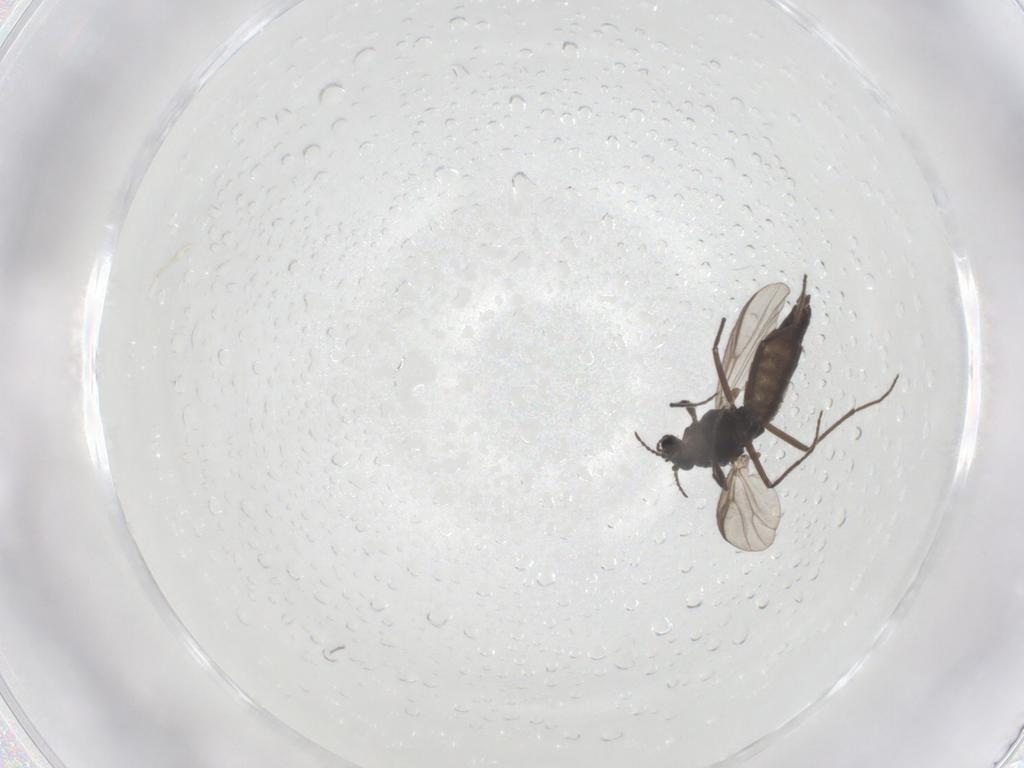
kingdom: Animalia
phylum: Arthropoda
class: Insecta
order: Diptera
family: Chironomidae
